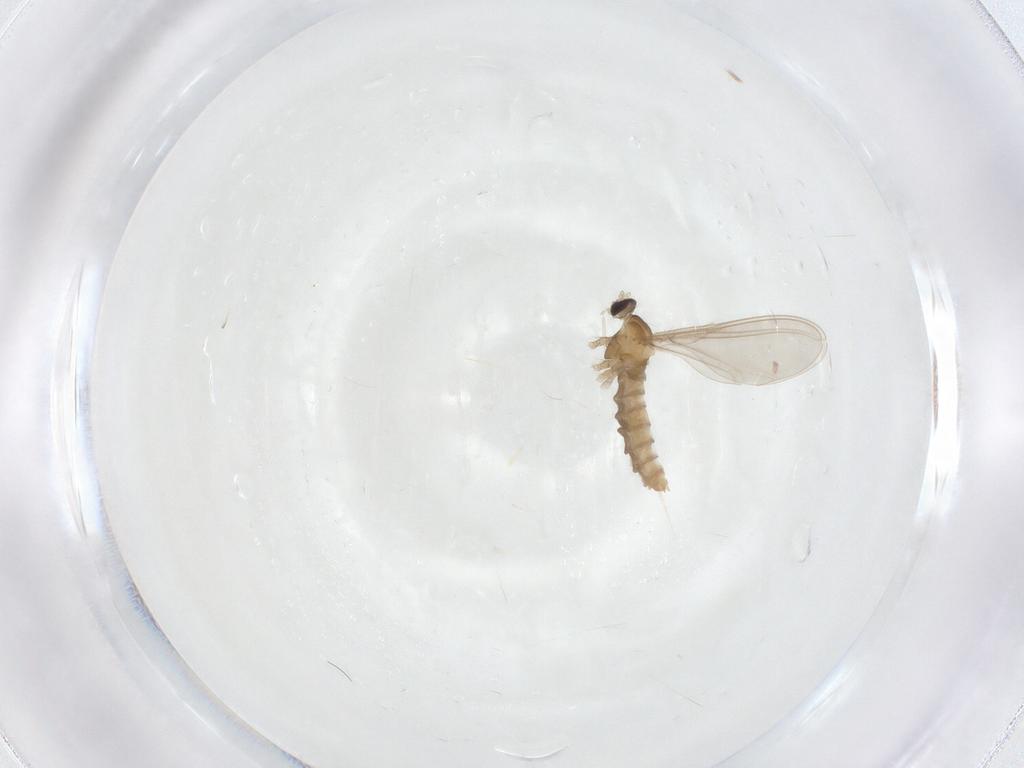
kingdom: Animalia
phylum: Arthropoda
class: Insecta
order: Diptera
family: Cecidomyiidae
